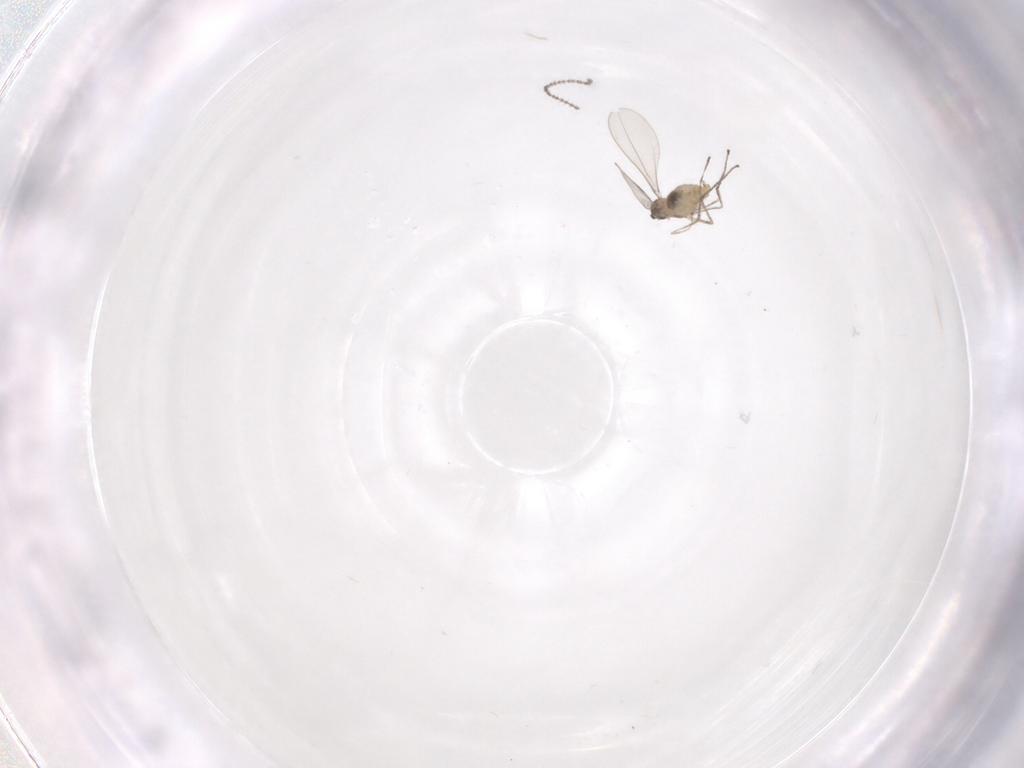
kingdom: Animalia
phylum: Arthropoda
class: Insecta
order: Diptera
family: Cecidomyiidae
